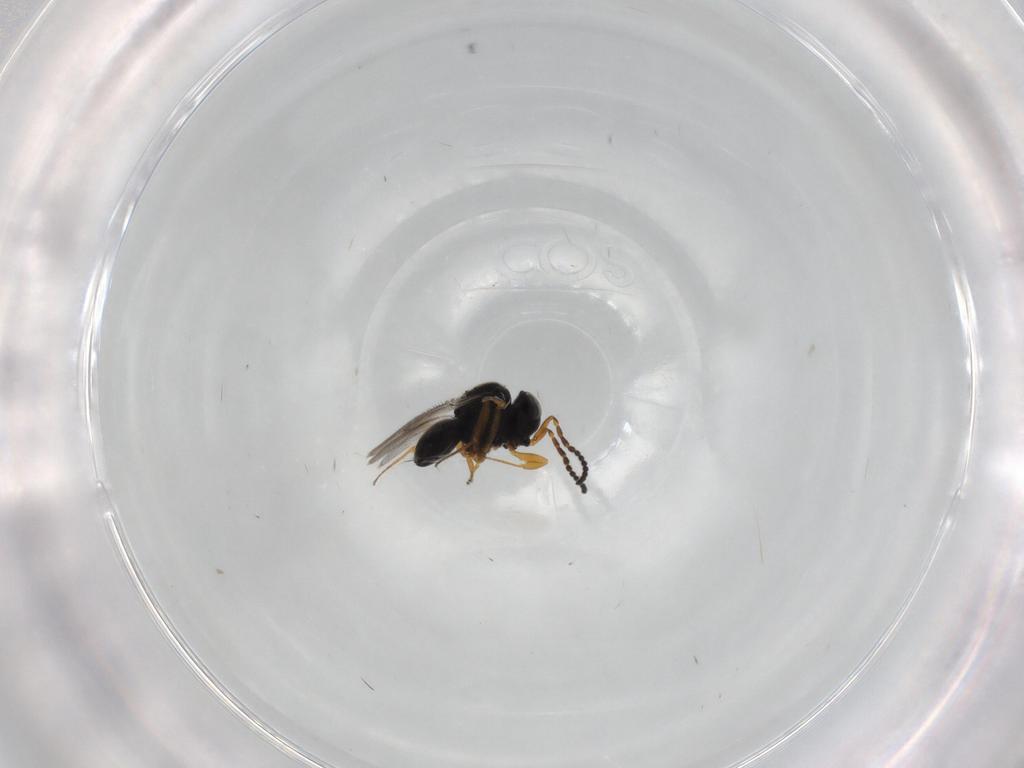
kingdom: Animalia
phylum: Arthropoda
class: Insecta
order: Hymenoptera
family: Scelionidae
